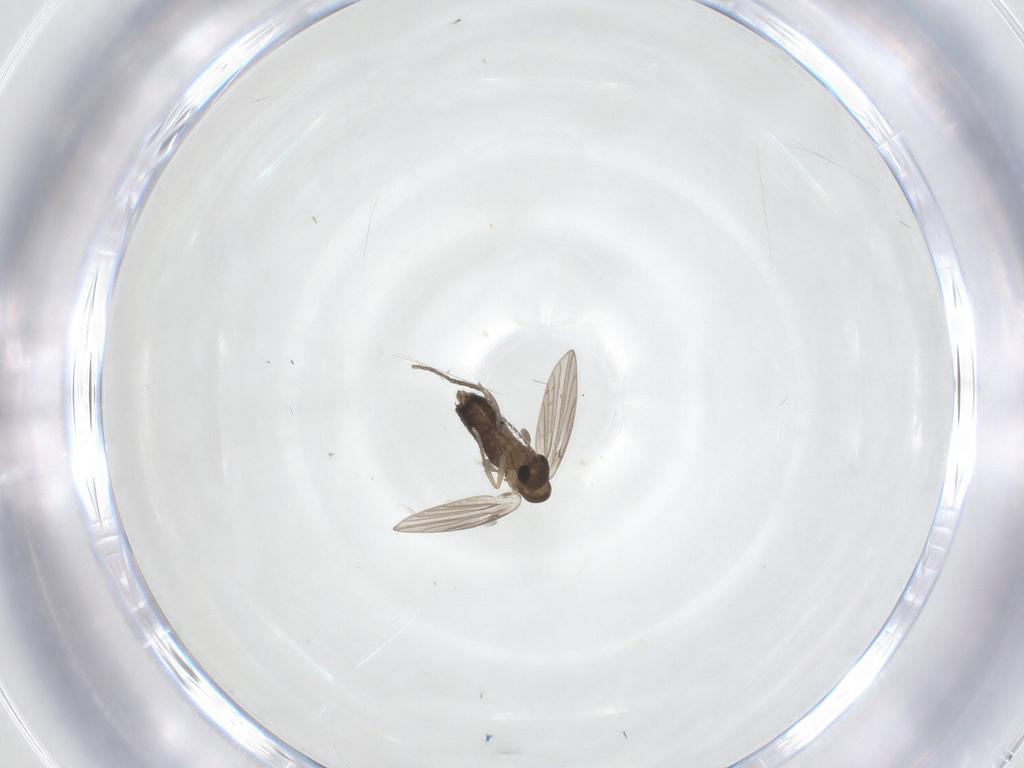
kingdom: Animalia
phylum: Arthropoda
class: Insecta
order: Diptera
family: Psychodidae
